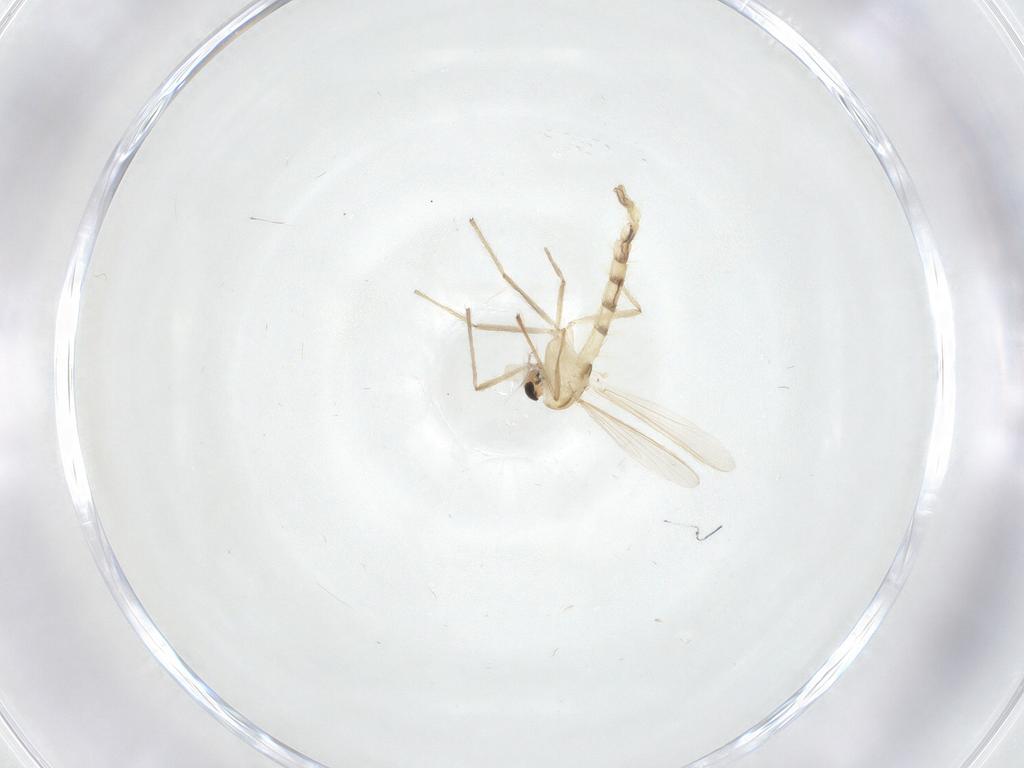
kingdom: Animalia
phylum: Arthropoda
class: Insecta
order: Diptera
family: Chironomidae
